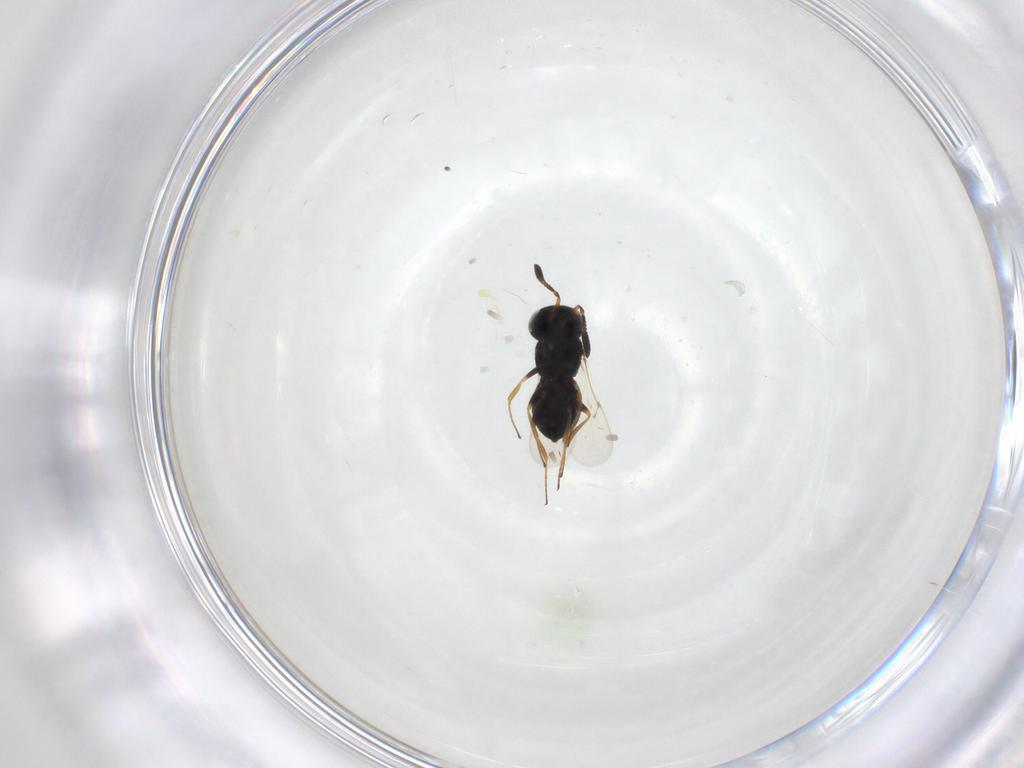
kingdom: Animalia
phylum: Arthropoda
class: Insecta
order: Hymenoptera
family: Scelionidae
